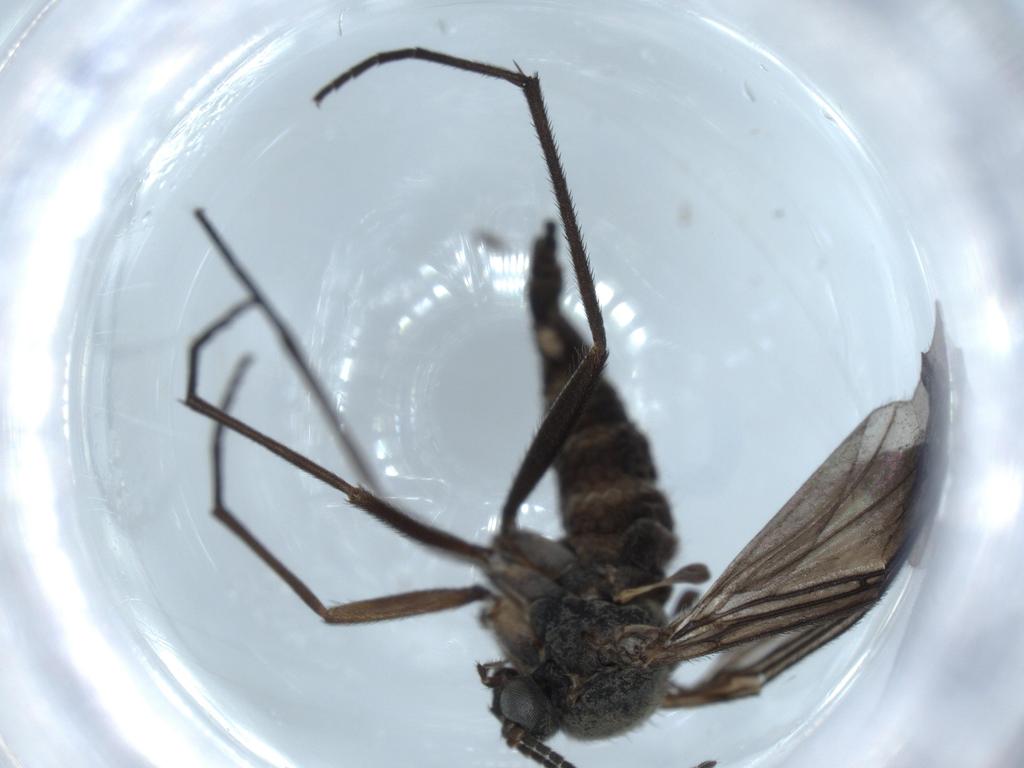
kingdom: Animalia
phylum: Arthropoda
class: Insecta
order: Diptera
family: Sciaridae
